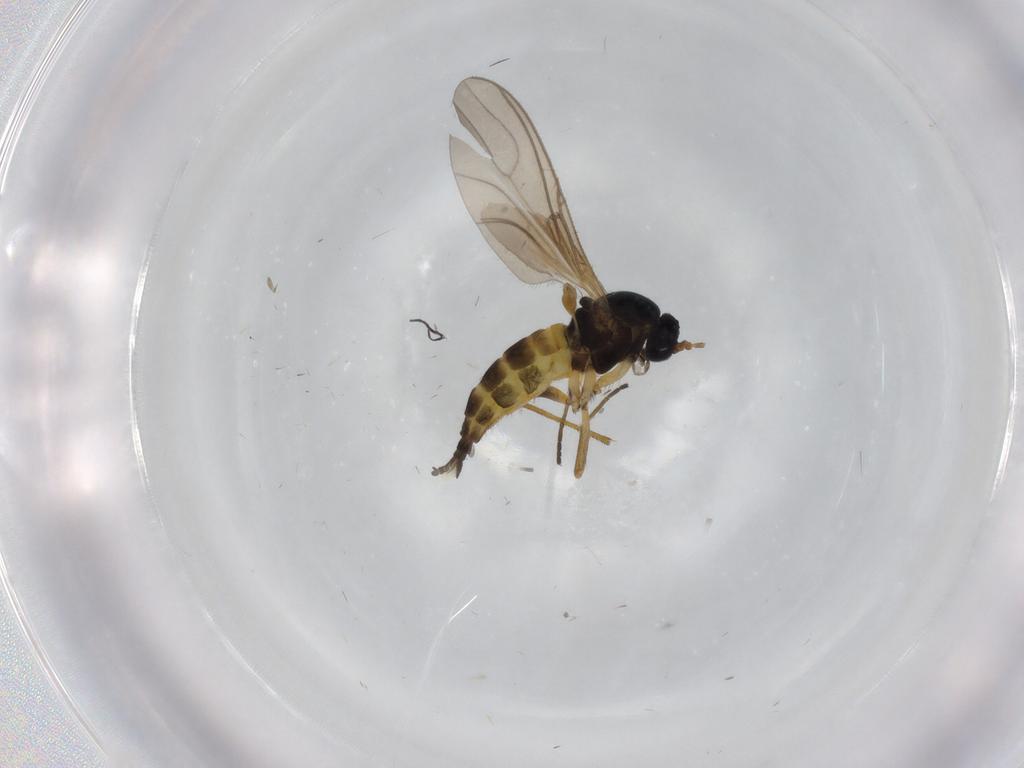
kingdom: Animalia
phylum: Arthropoda
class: Insecta
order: Diptera
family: Sciaridae
